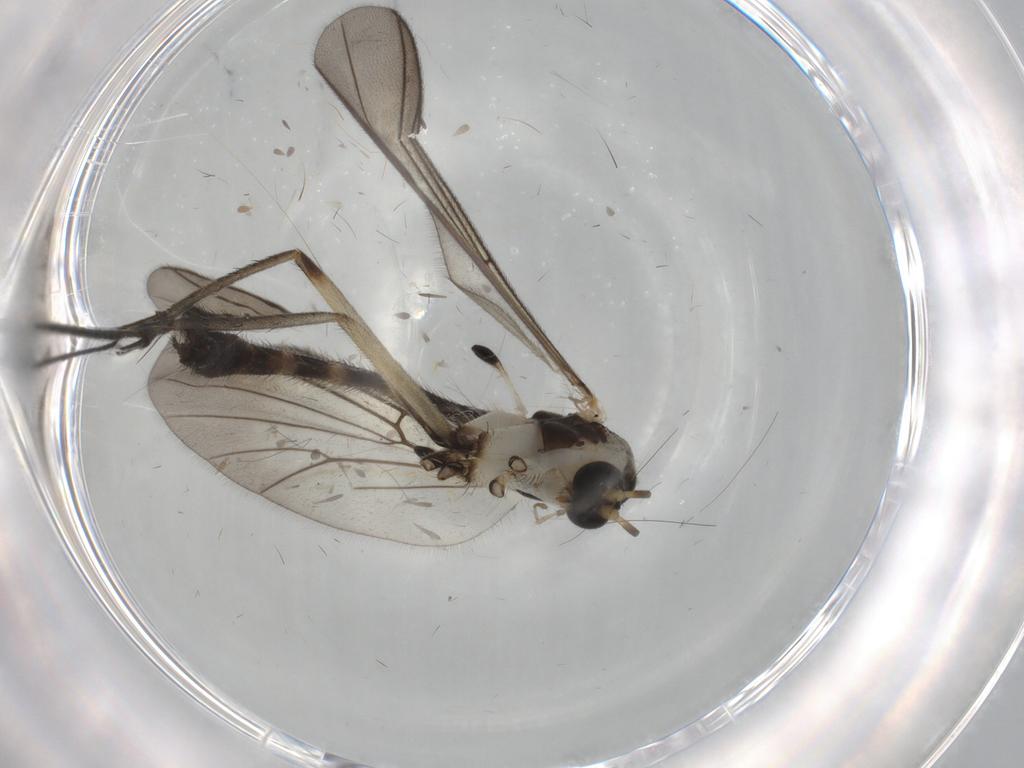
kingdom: Animalia
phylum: Arthropoda
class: Insecta
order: Diptera
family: Mycetophilidae
